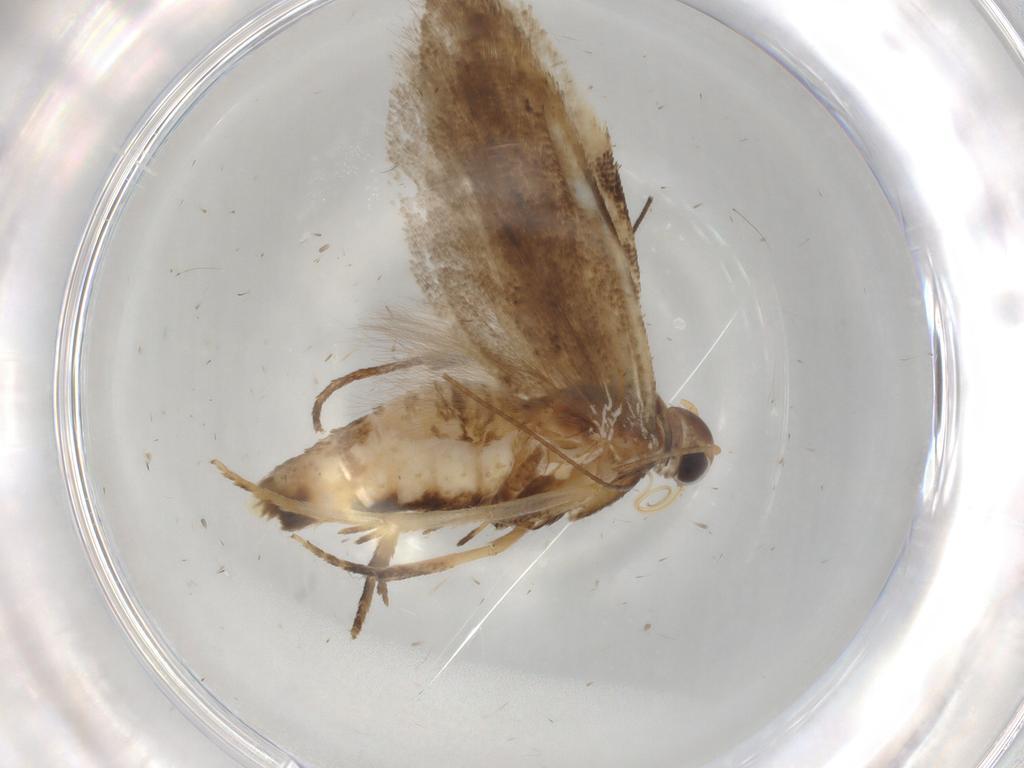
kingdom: Animalia
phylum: Arthropoda
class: Insecta
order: Lepidoptera
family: Gelechiidae
